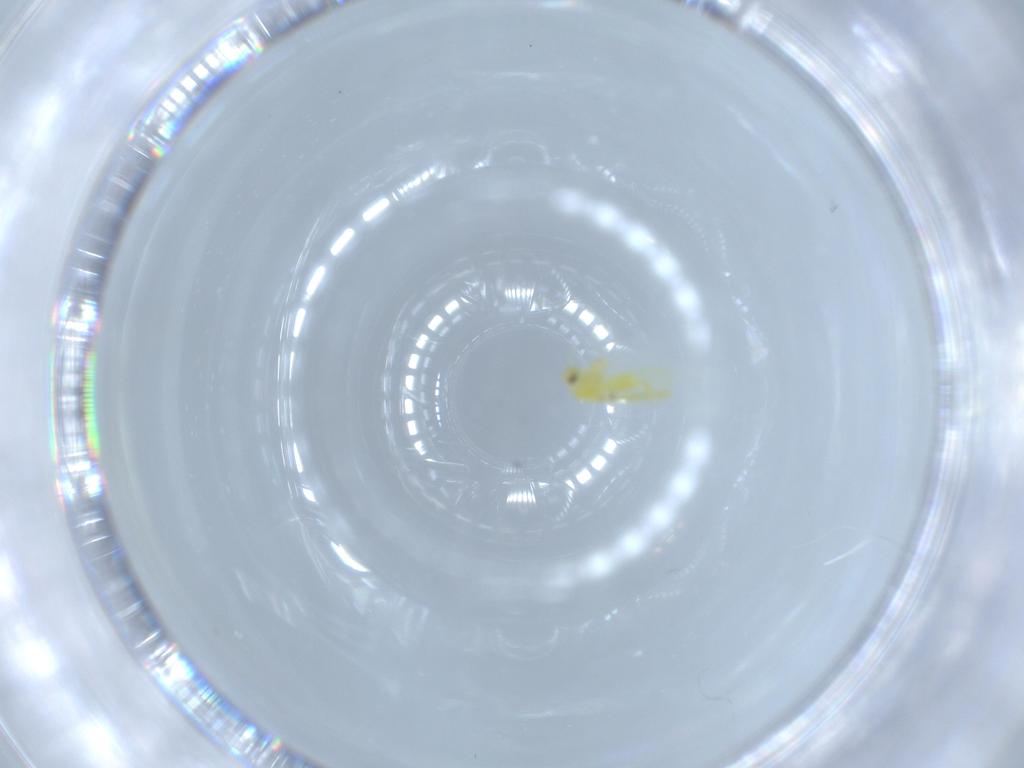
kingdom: Animalia
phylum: Arthropoda
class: Insecta
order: Hemiptera
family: Aleyrodidae
